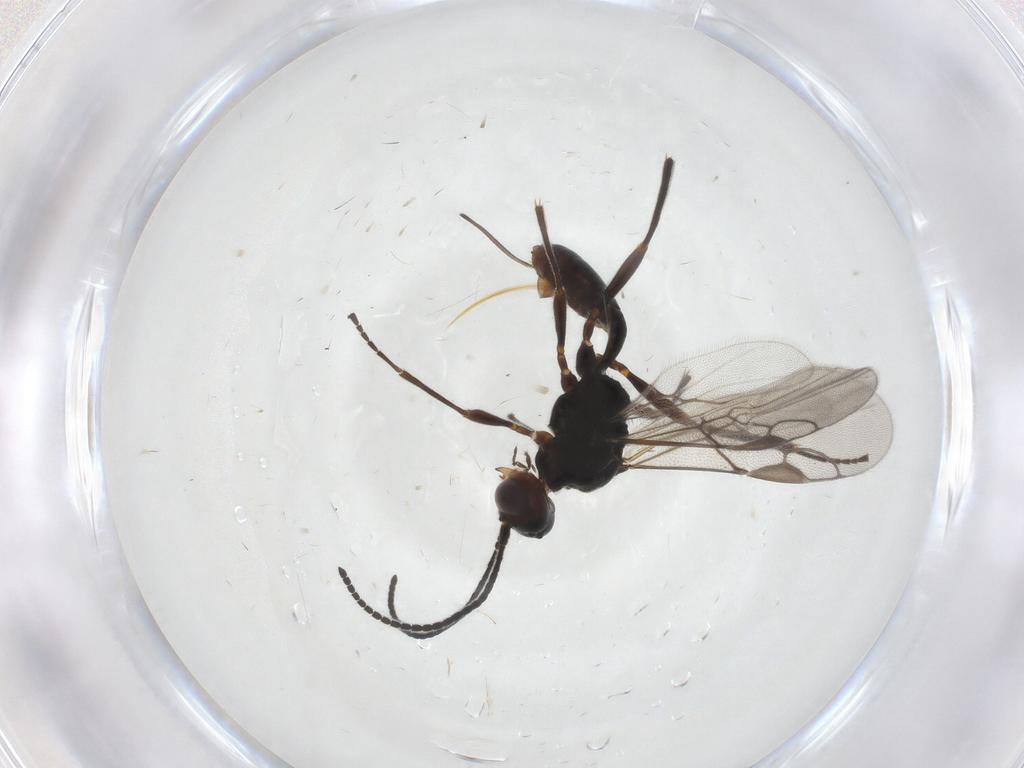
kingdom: Animalia
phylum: Arthropoda
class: Insecta
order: Hymenoptera
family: Braconidae
